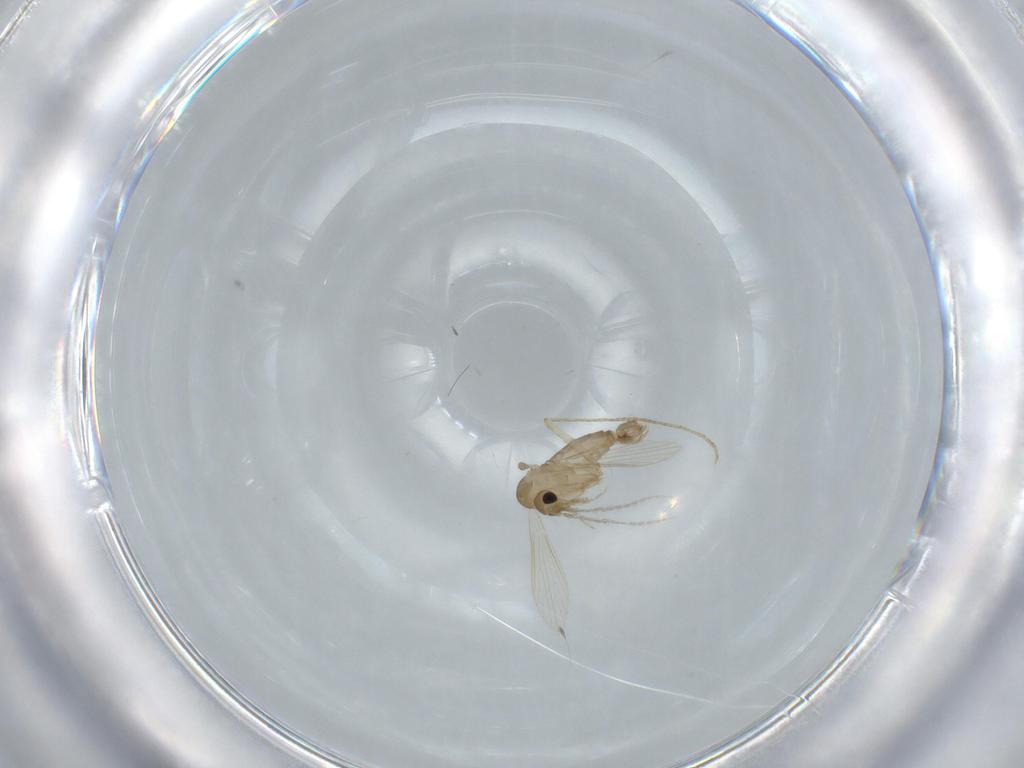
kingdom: Animalia
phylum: Arthropoda
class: Insecta
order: Diptera
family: Psychodidae
